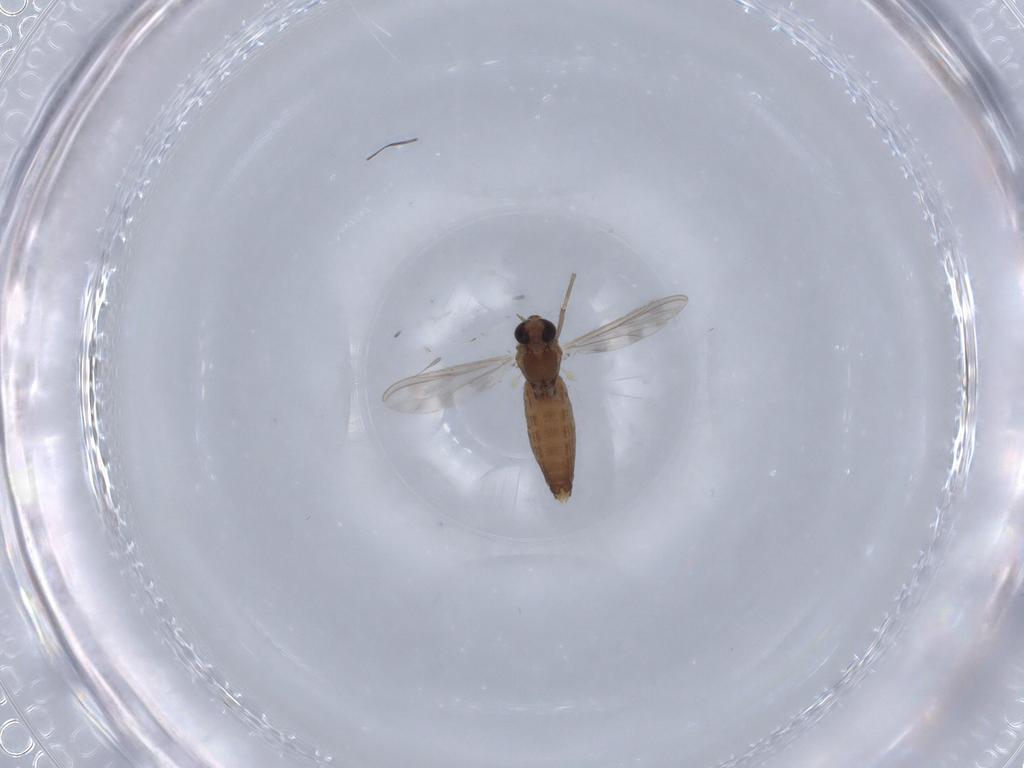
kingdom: Animalia
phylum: Arthropoda
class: Insecta
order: Diptera
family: Chironomidae
